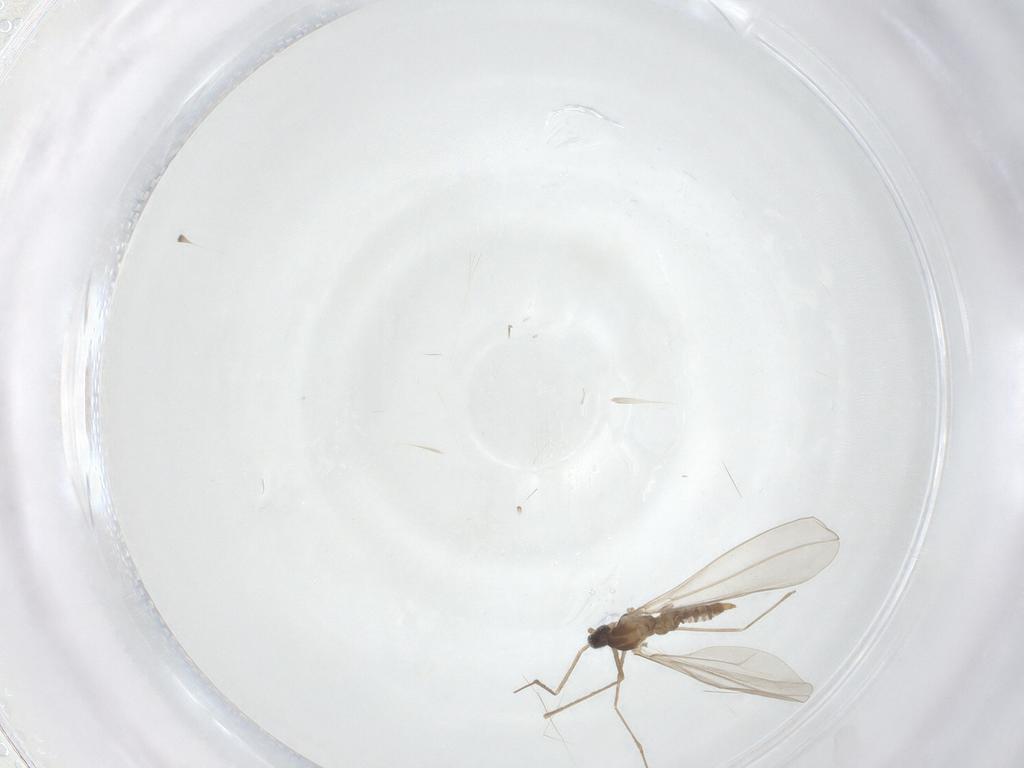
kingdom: Animalia
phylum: Arthropoda
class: Insecta
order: Diptera
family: Cecidomyiidae
